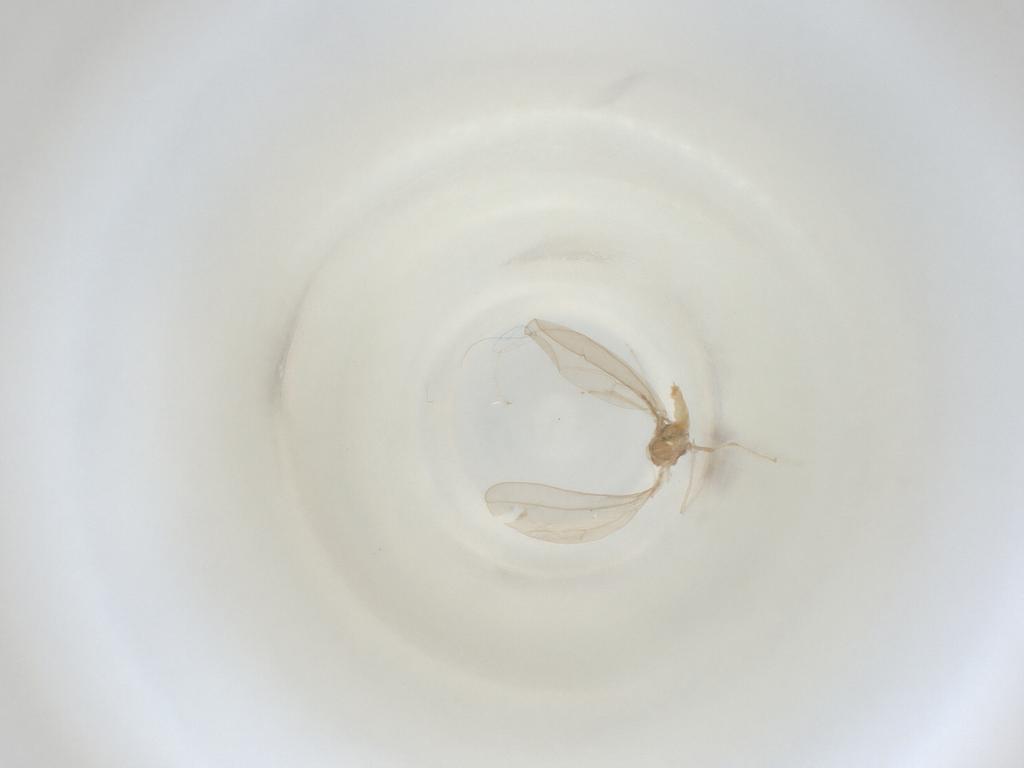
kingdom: Animalia
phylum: Arthropoda
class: Insecta
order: Diptera
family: Cecidomyiidae
